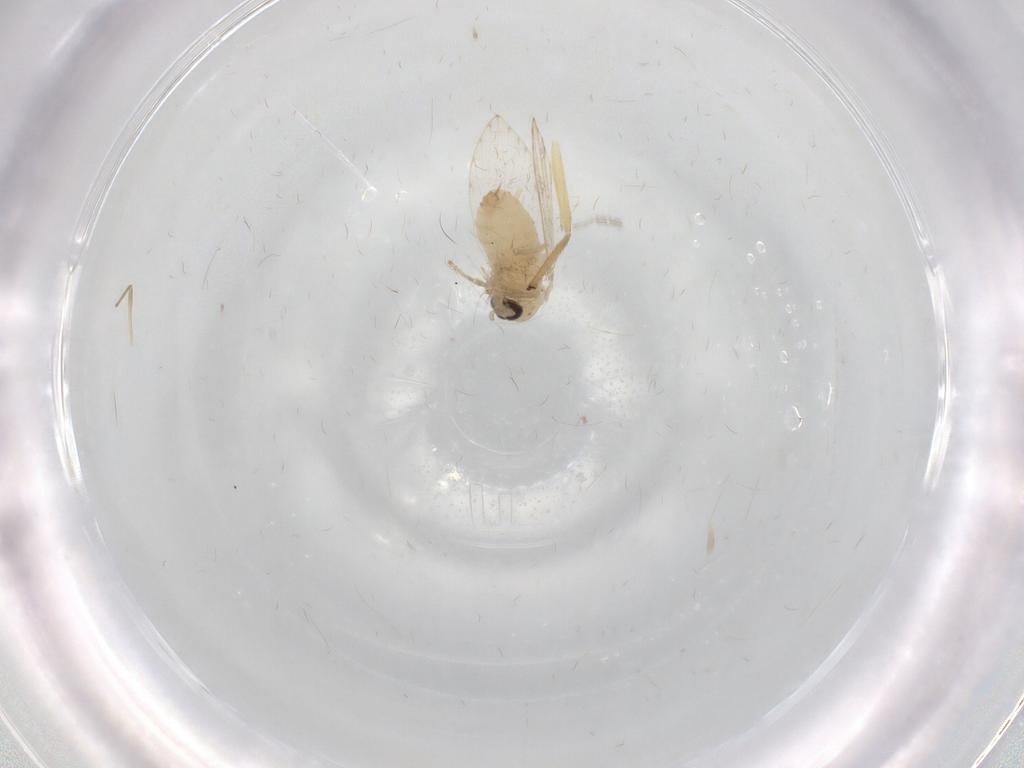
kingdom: Animalia
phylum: Arthropoda
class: Insecta
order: Diptera
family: Psychodidae
